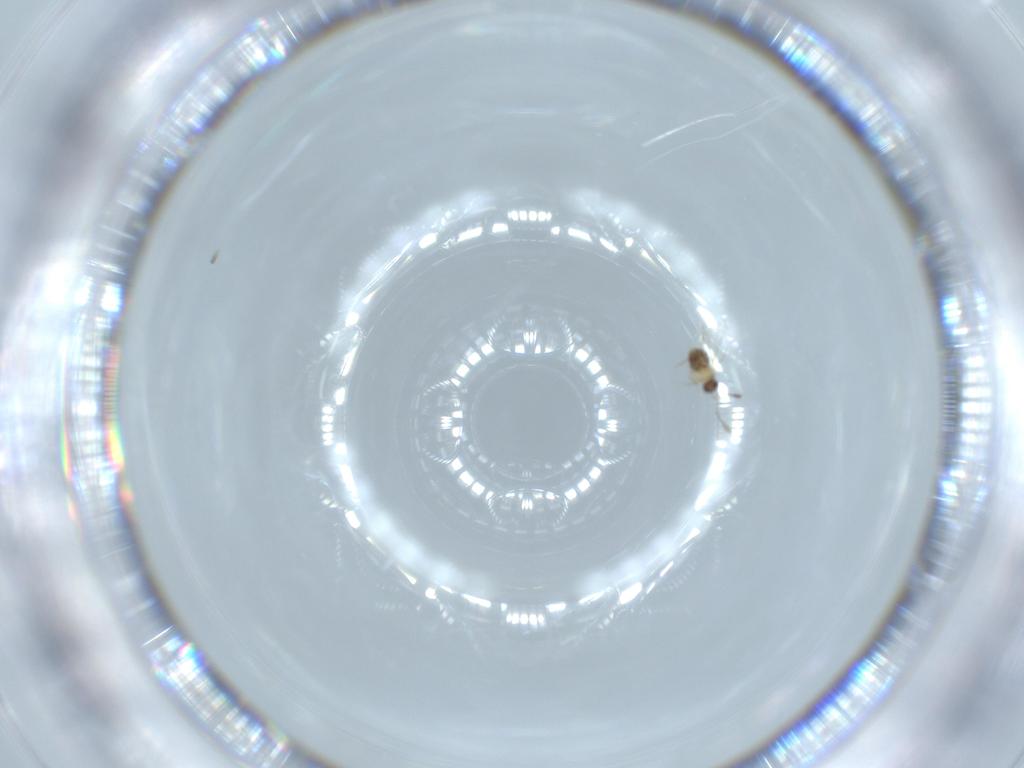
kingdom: Animalia
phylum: Arthropoda
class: Insecta
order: Hymenoptera
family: Mymaridae
